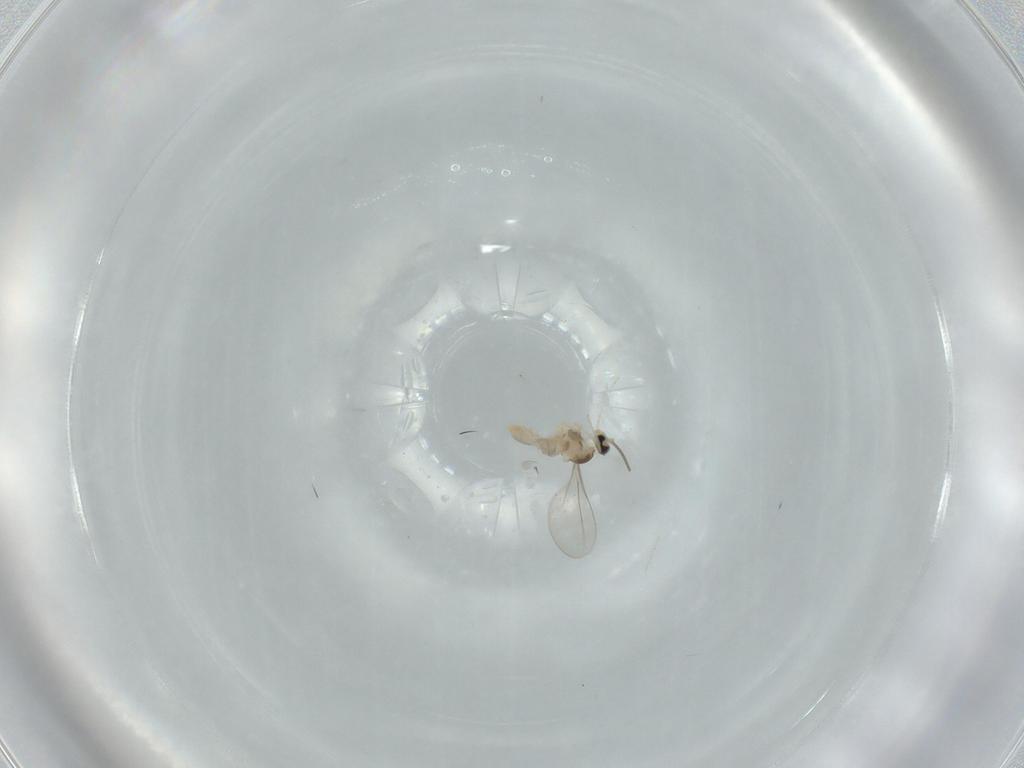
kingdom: Animalia
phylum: Arthropoda
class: Insecta
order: Diptera
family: Cecidomyiidae
